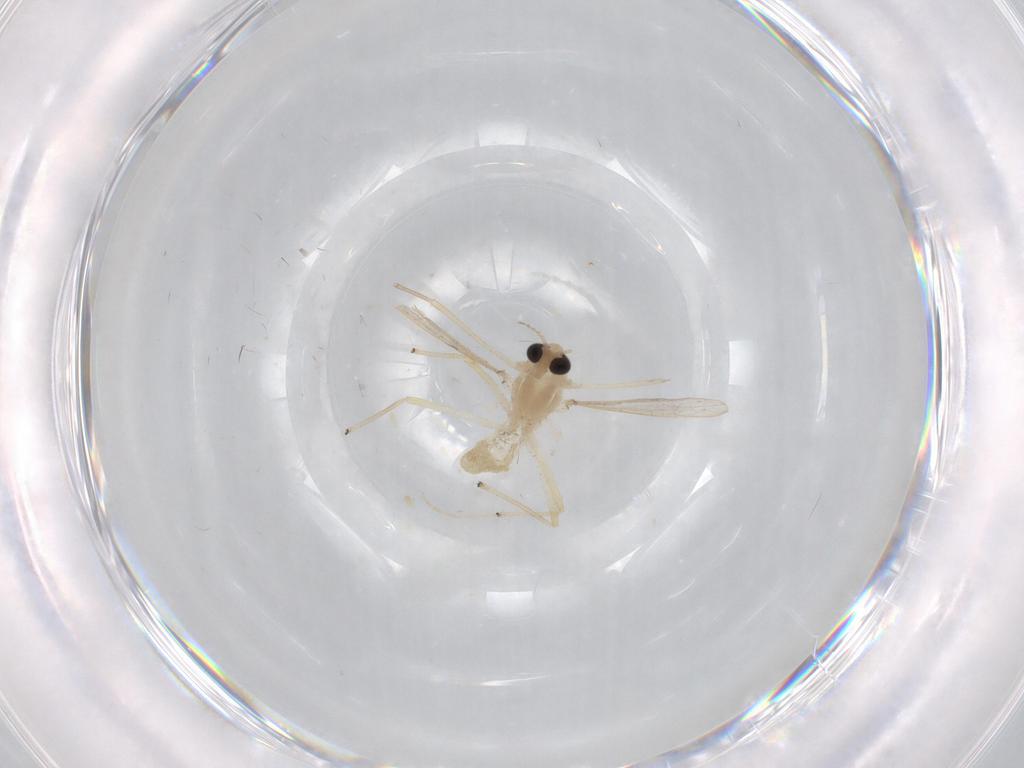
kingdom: Animalia
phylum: Arthropoda
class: Insecta
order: Diptera
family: Chironomidae
